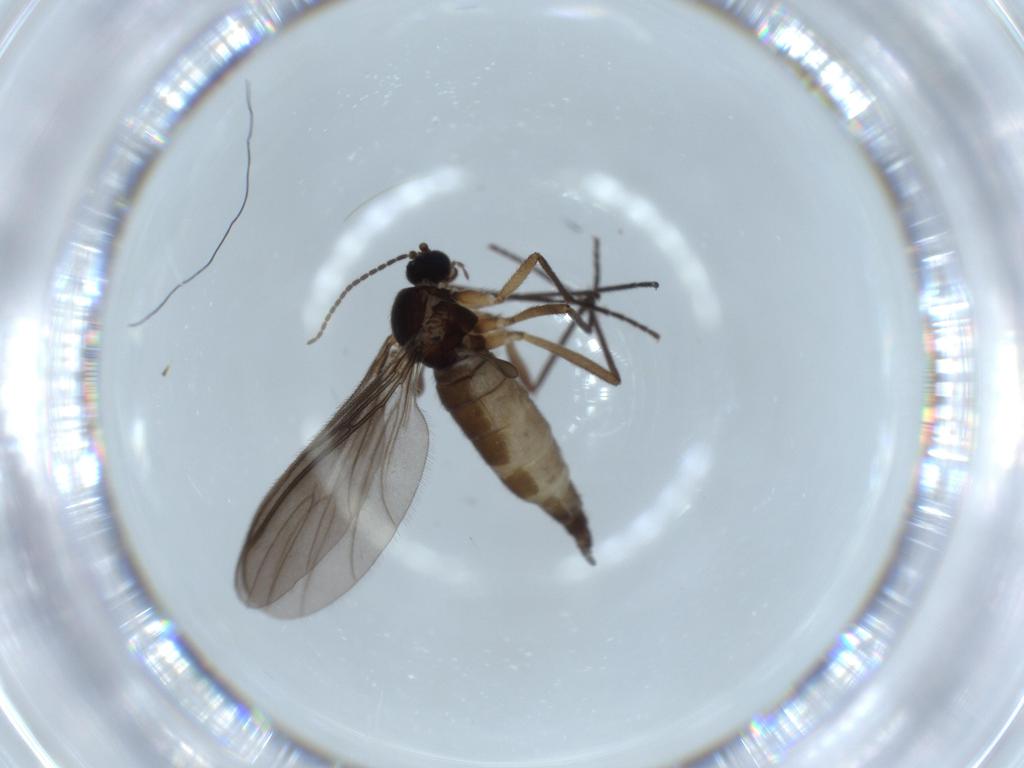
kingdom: Animalia
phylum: Arthropoda
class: Insecta
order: Diptera
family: Sciaridae
